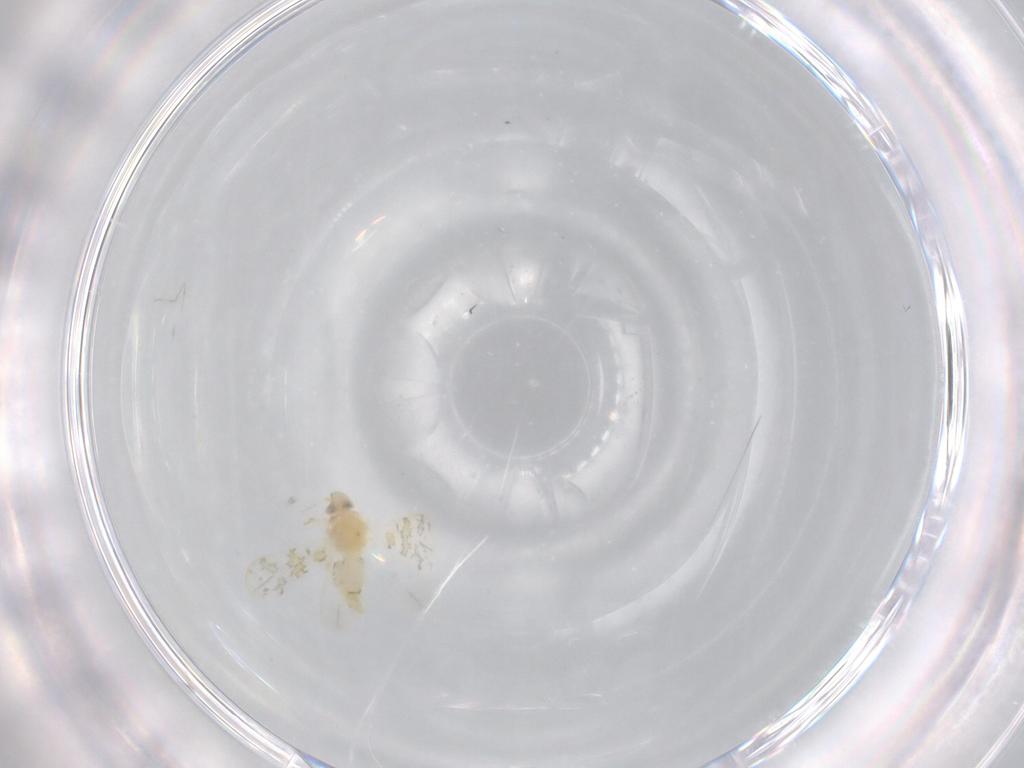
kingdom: Animalia
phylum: Arthropoda
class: Insecta
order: Hemiptera
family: Aleyrodidae
